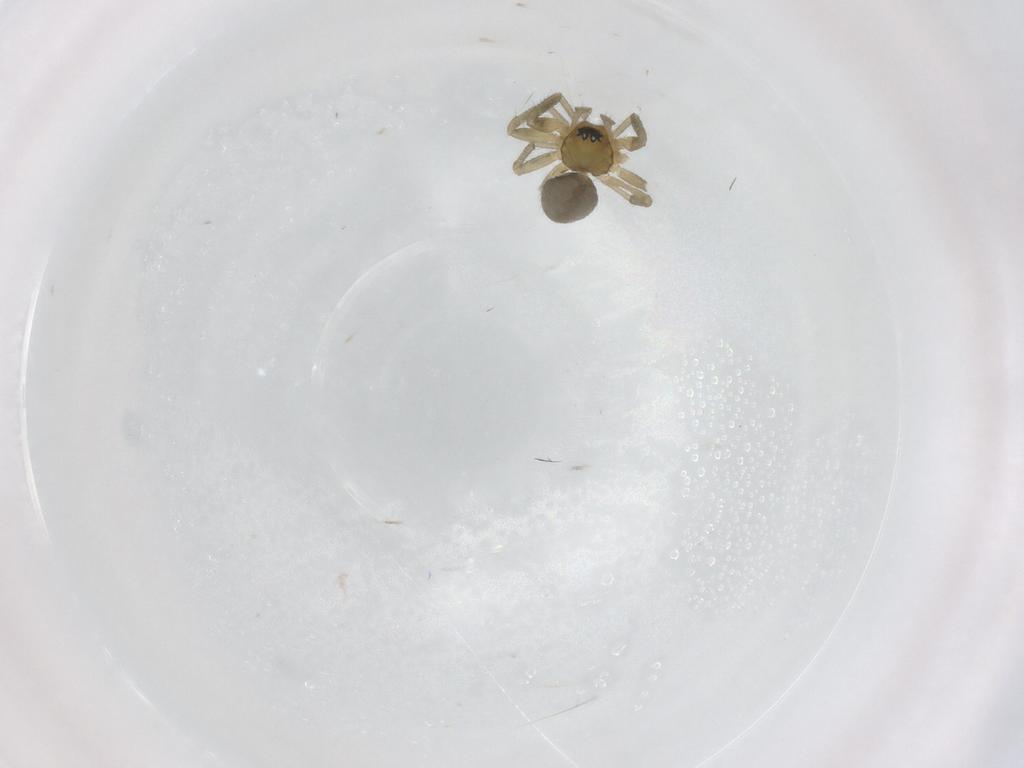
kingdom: Animalia
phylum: Arthropoda
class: Arachnida
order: Araneae
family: Linyphiidae
